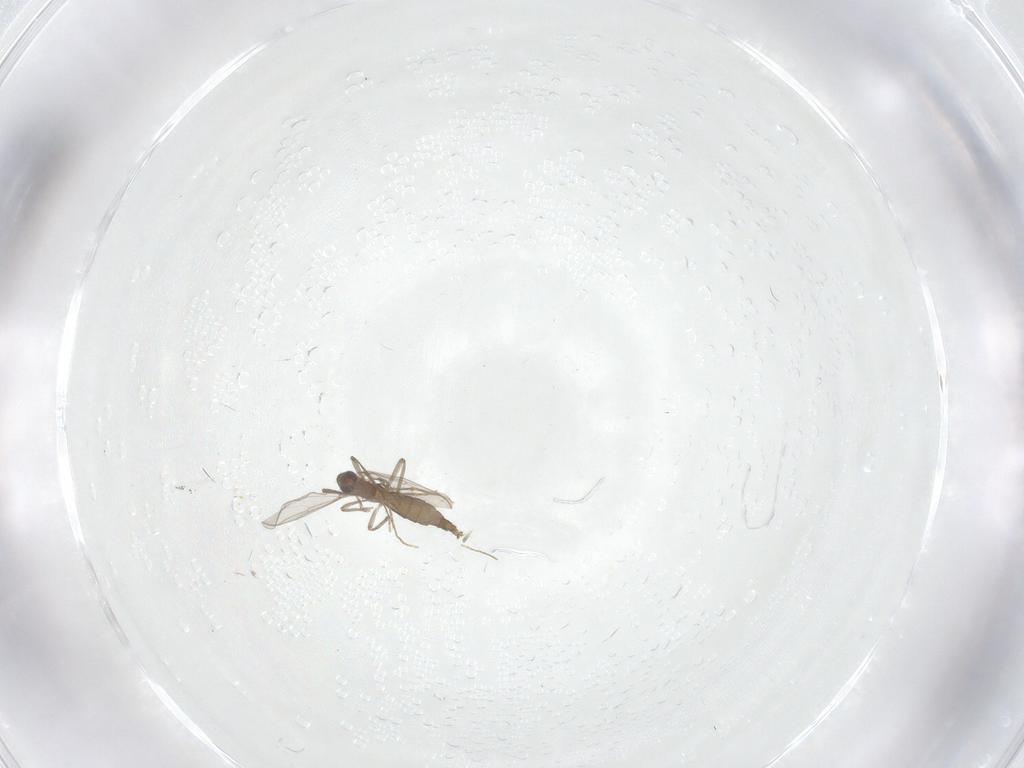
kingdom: Animalia
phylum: Arthropoda
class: Insecta
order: Diptera
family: Chironomidae
